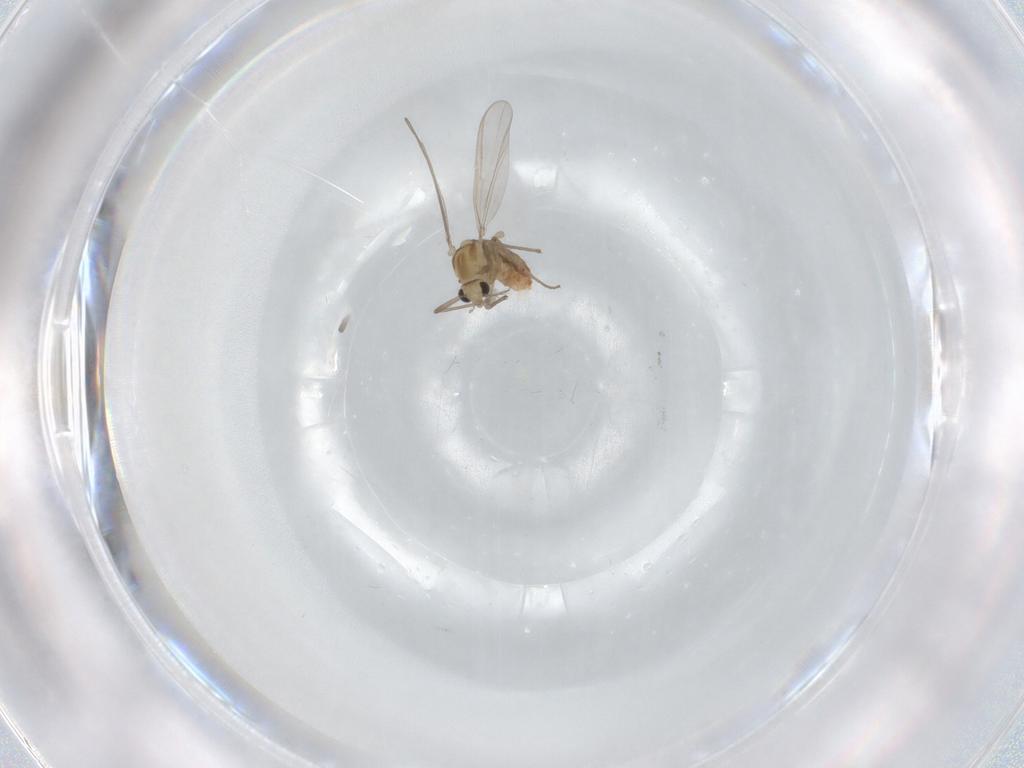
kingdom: Animalia
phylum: Arthropoda
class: Insecta
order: Diptera
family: Chironomidae
